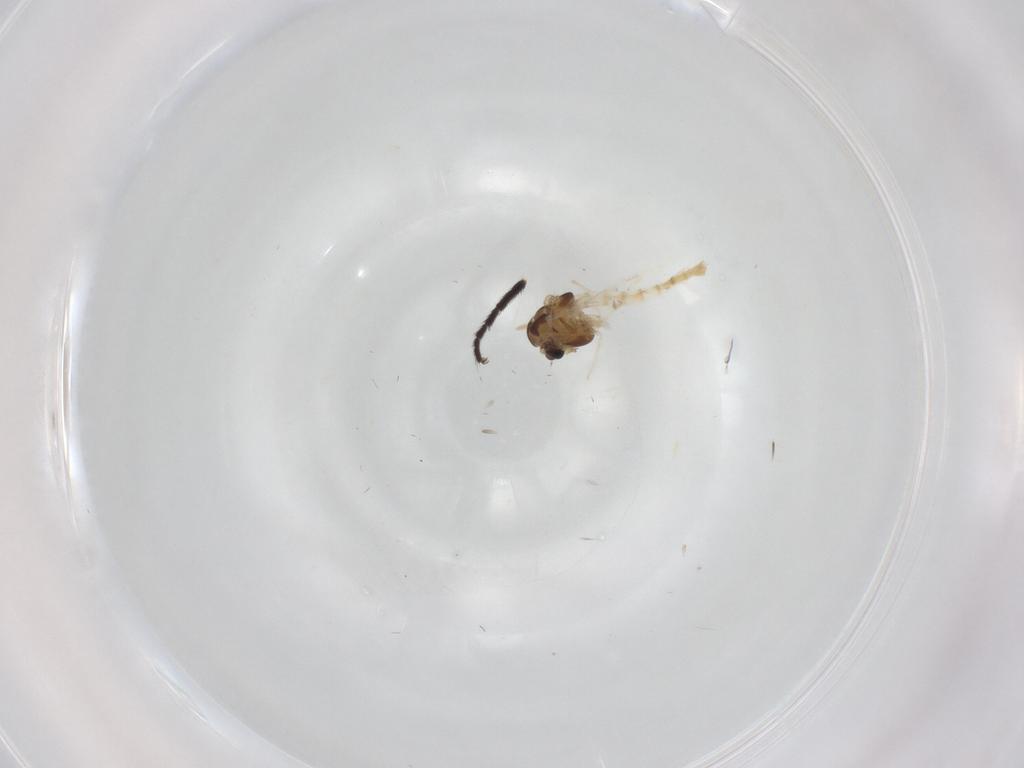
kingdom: Animalia
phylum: Arthropoda
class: Insecta
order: Diptera
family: Chironomidae
